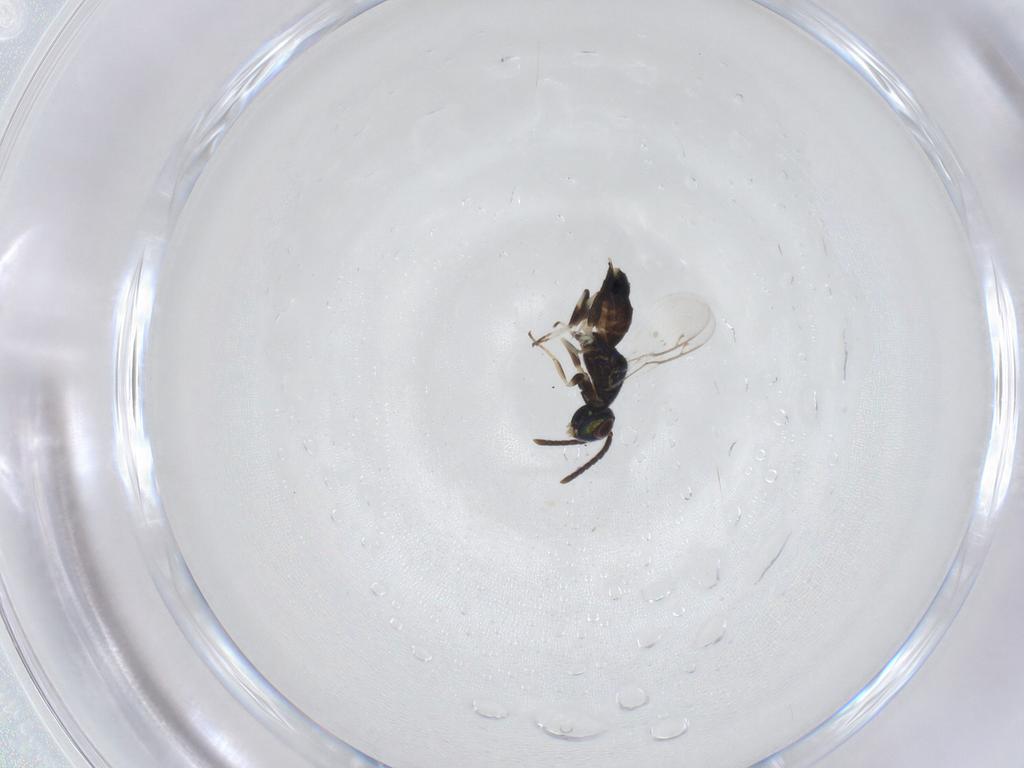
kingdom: Animalia
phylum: Arthropoda
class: Insecta
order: Hymenoptera
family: Eupelmidae
